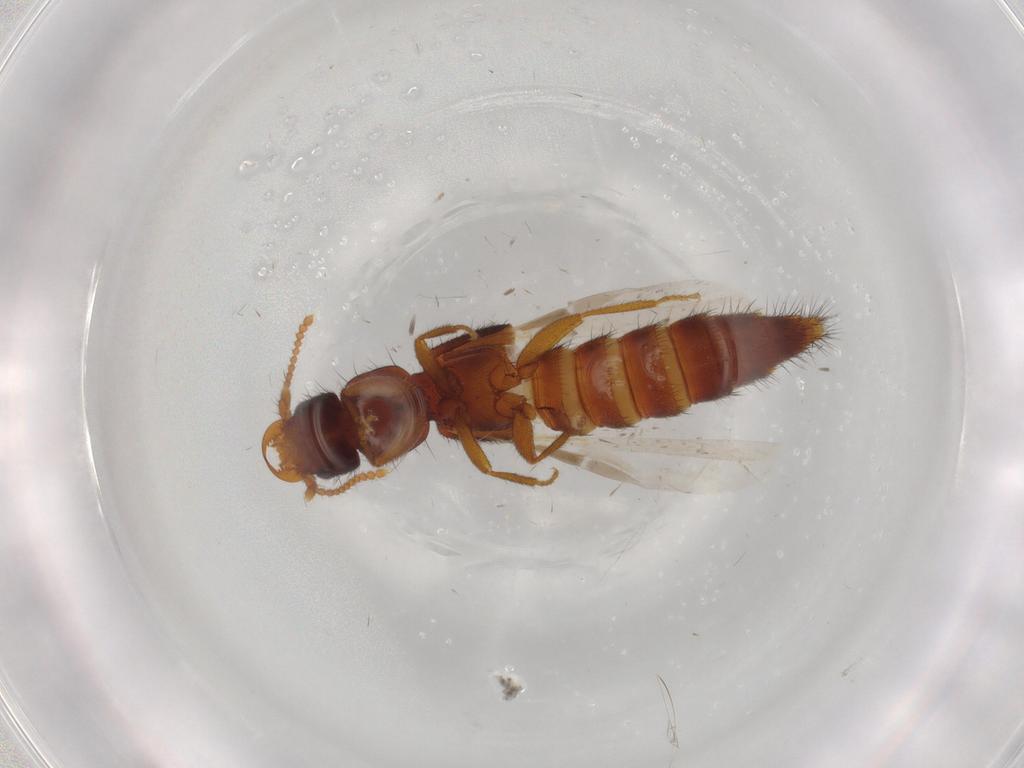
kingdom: Animalia
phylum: Arthropoda
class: Insecta
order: Coleoptera
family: Staphylinidae
